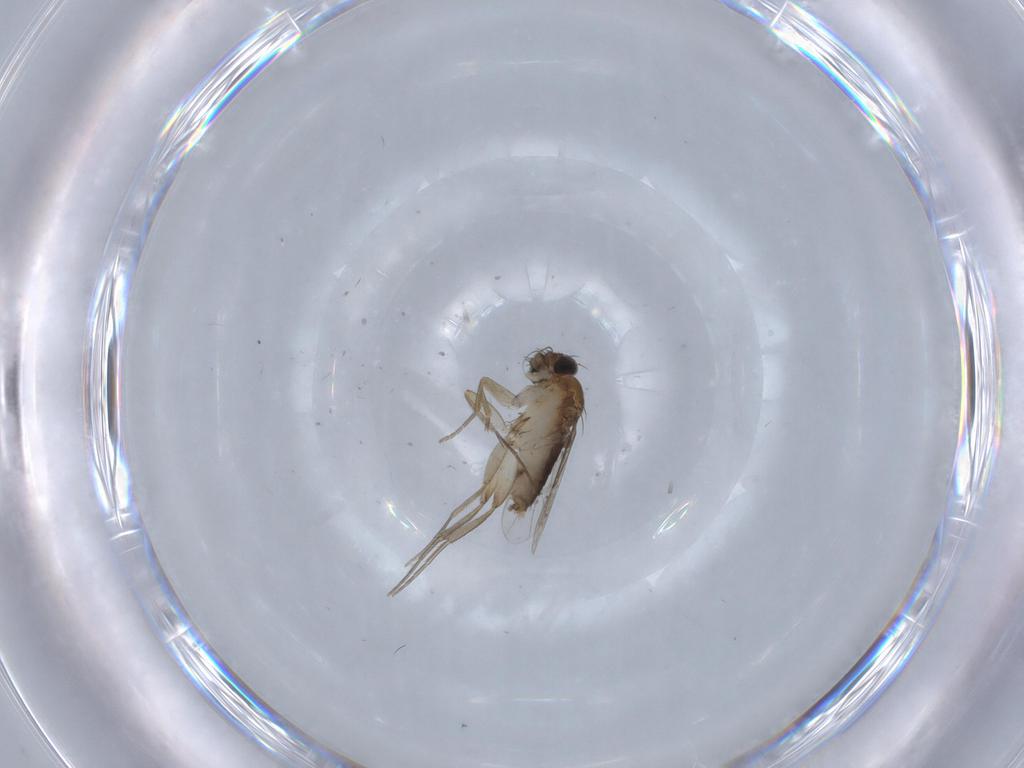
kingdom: Animalia
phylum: Arthropoda
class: Insecta
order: Diptera
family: Phoridae
